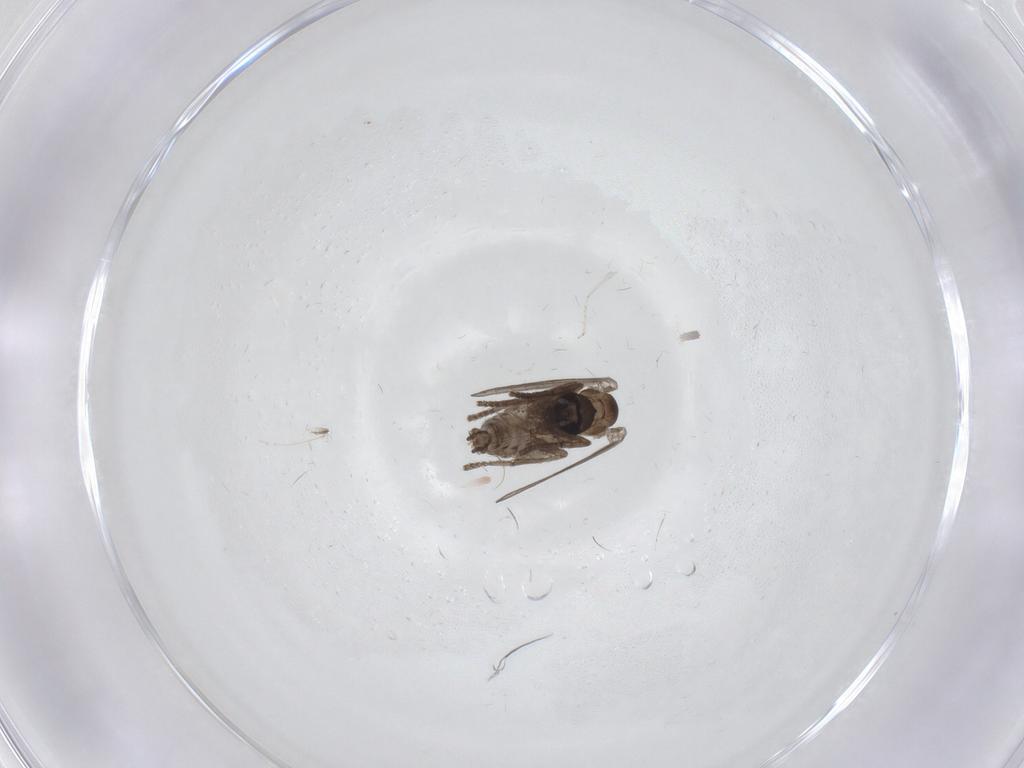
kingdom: Animalia
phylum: Arthropoda
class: Insecta
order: Diptera
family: Psychodidae
